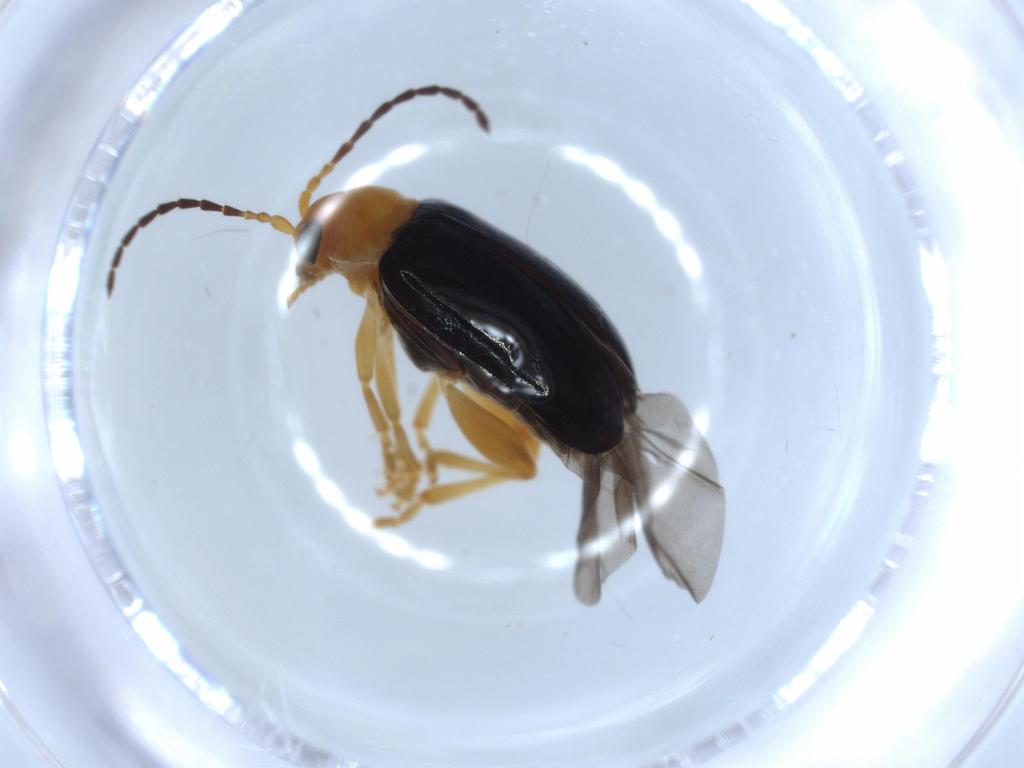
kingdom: Animalia
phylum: Arthropoda
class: Insecta
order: Coleoptera
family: Chrysomelidae
